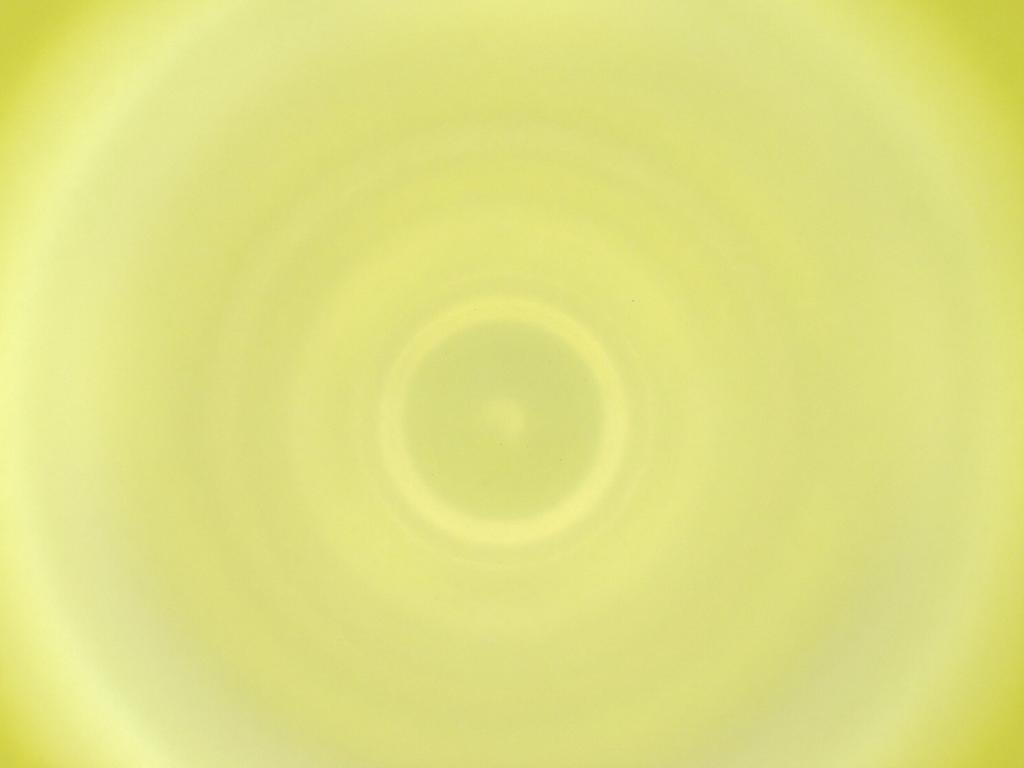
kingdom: Animalia
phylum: Arthropoda
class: Insecta
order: Diptera
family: Cecidomyiidae
